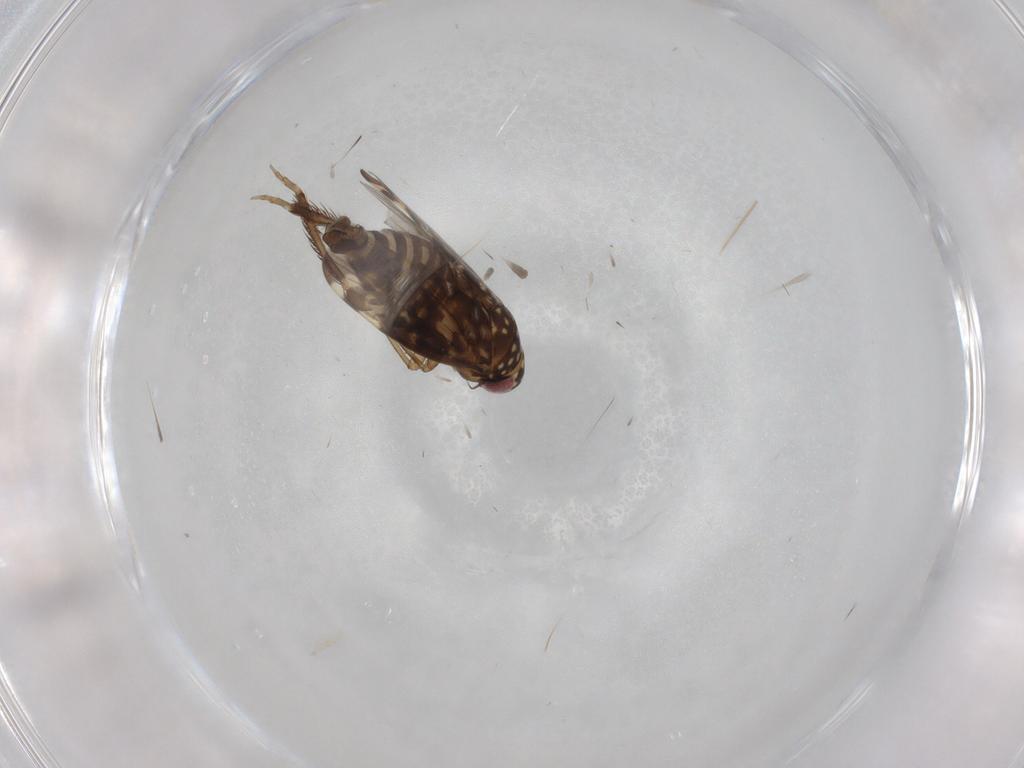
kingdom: Animalia
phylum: Arthropoda
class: Insecta
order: Hemiptera
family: Cicadellidae
